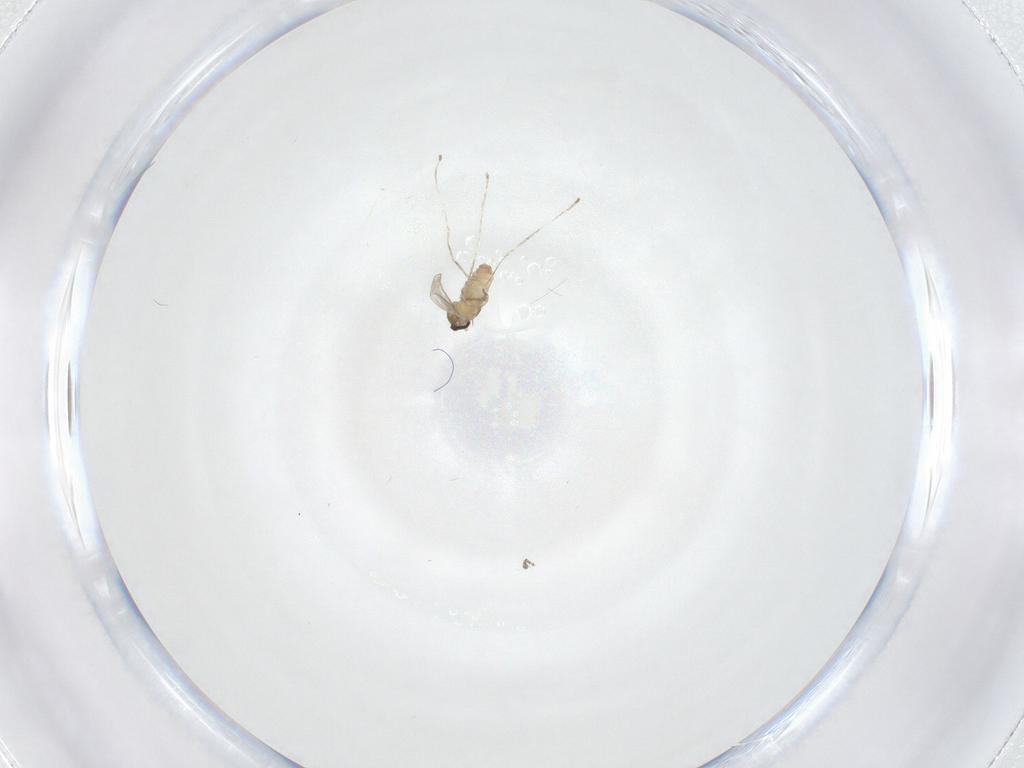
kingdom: Animalia
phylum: Arthropoda
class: Insecta
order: Diptera
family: Cecidomyiidae
